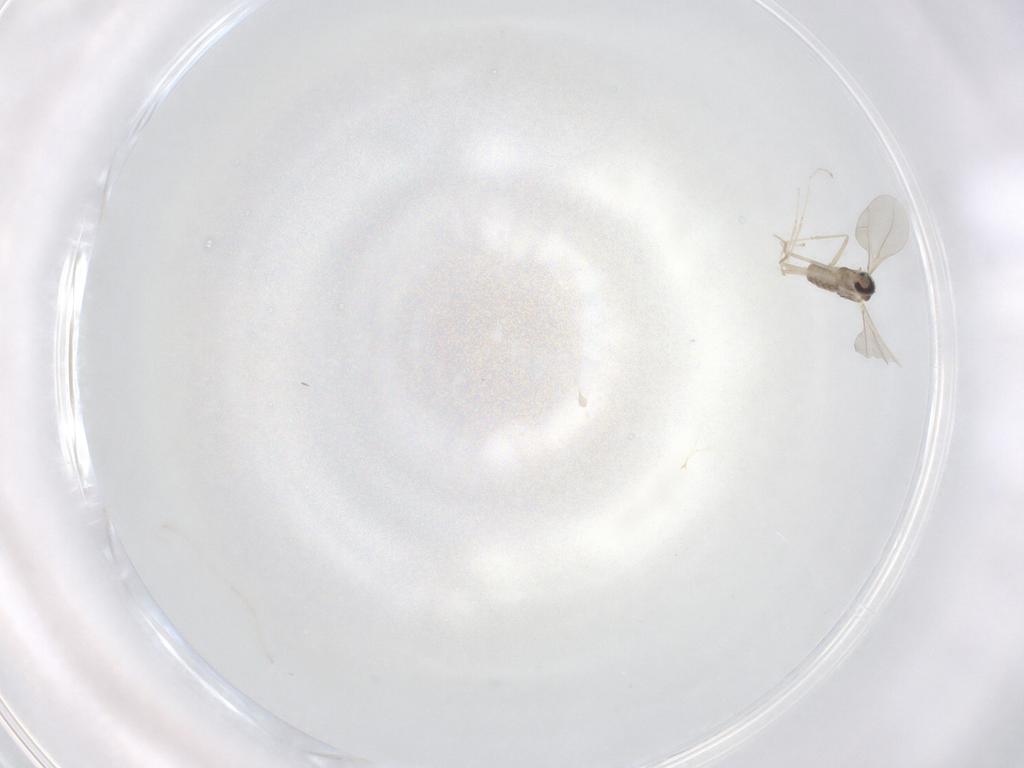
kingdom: Animalia
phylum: Arthropoda
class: Insecta
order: Diptera
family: Cecidomyiidae
